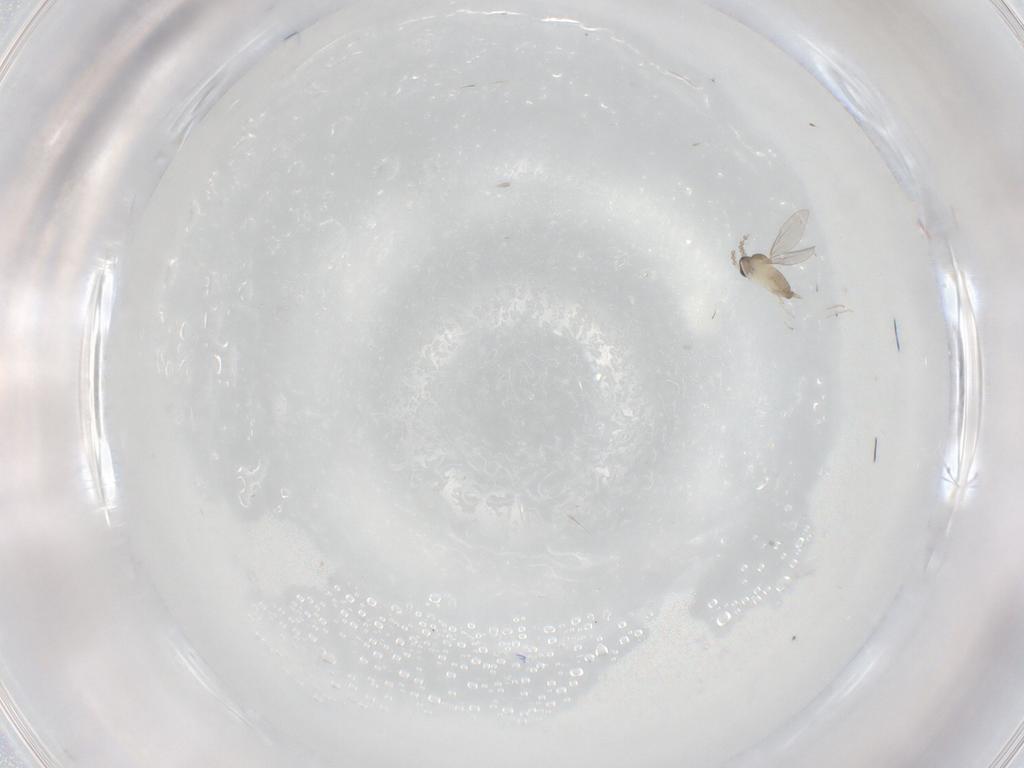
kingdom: Animalia
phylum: Arthropoda
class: Insecta
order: Diptera
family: Cecidomyiidae
